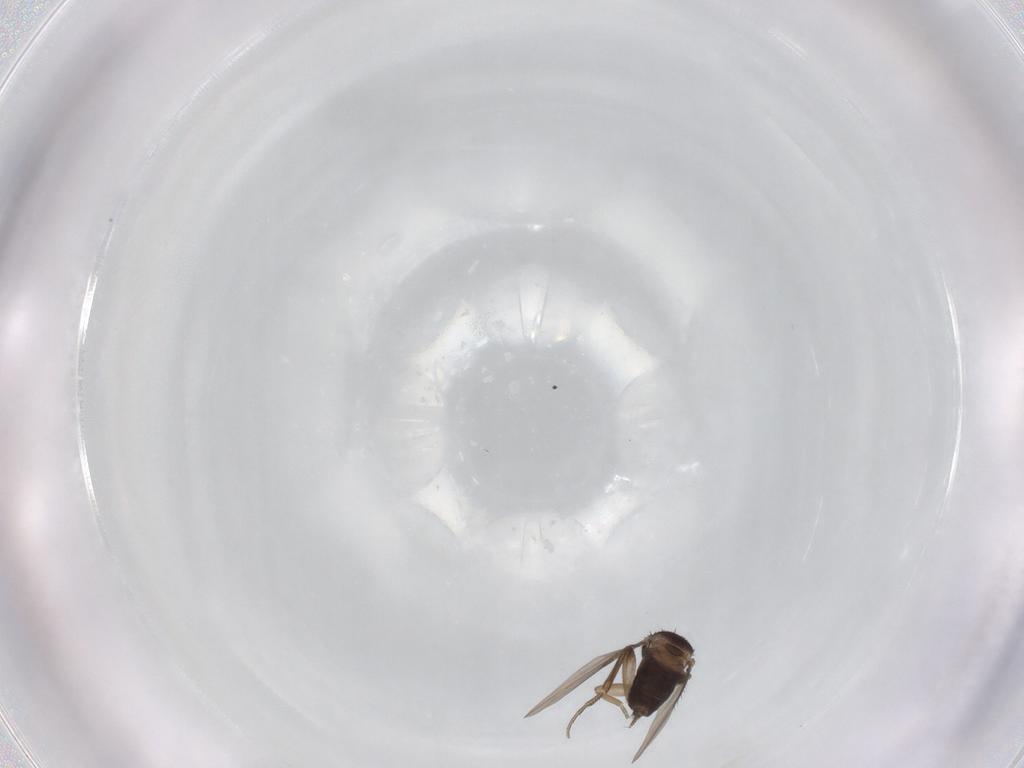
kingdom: Animalia
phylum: Arthropoda
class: Insecta
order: Diptera
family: Phoridae
